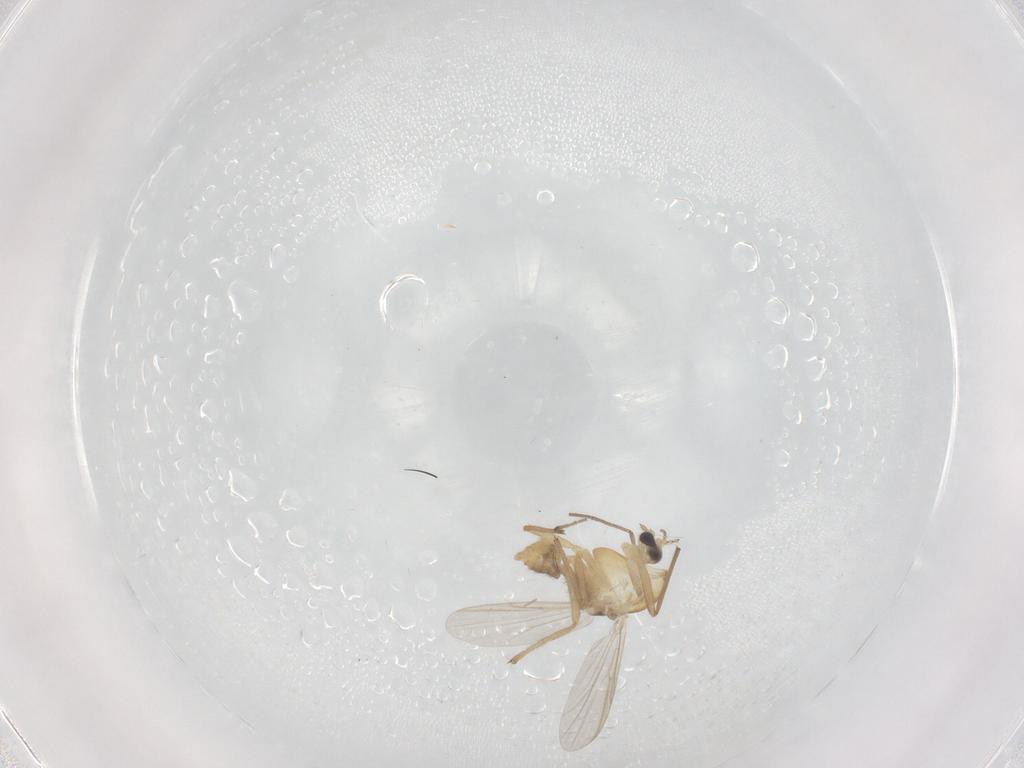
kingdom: Animalia
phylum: Arthropoda
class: Insecta
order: Diptera
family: Chironomidae
